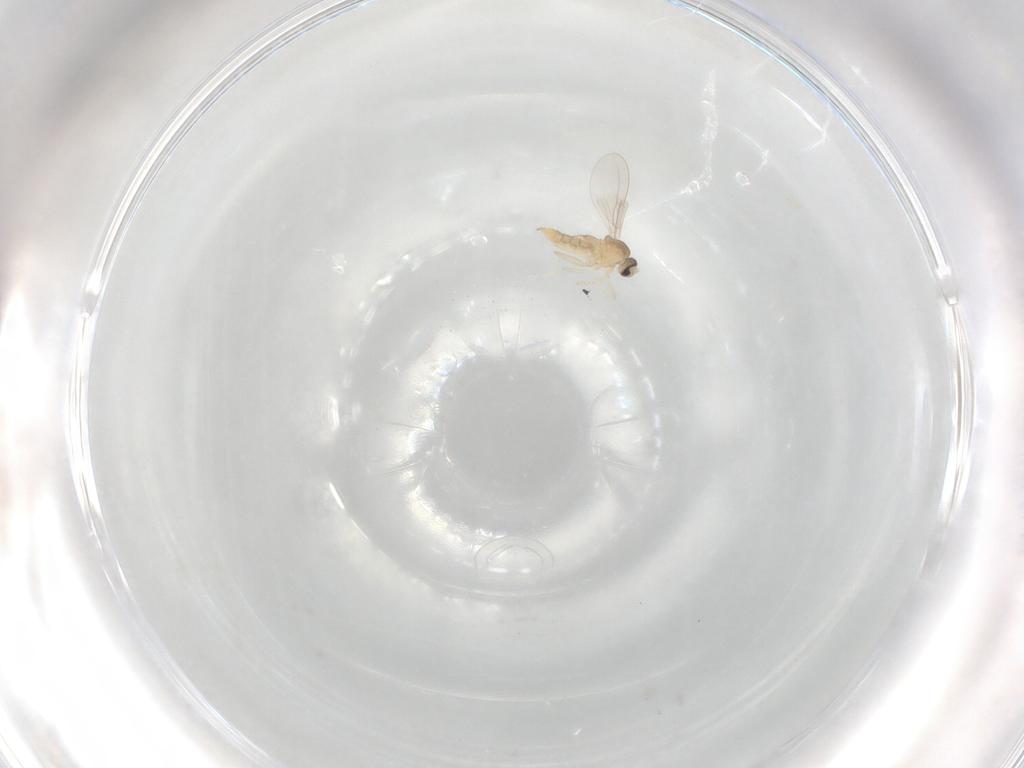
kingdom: Animalia
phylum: Arthropoda
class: Insecta
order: Diptera
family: Cecidomyiidae
